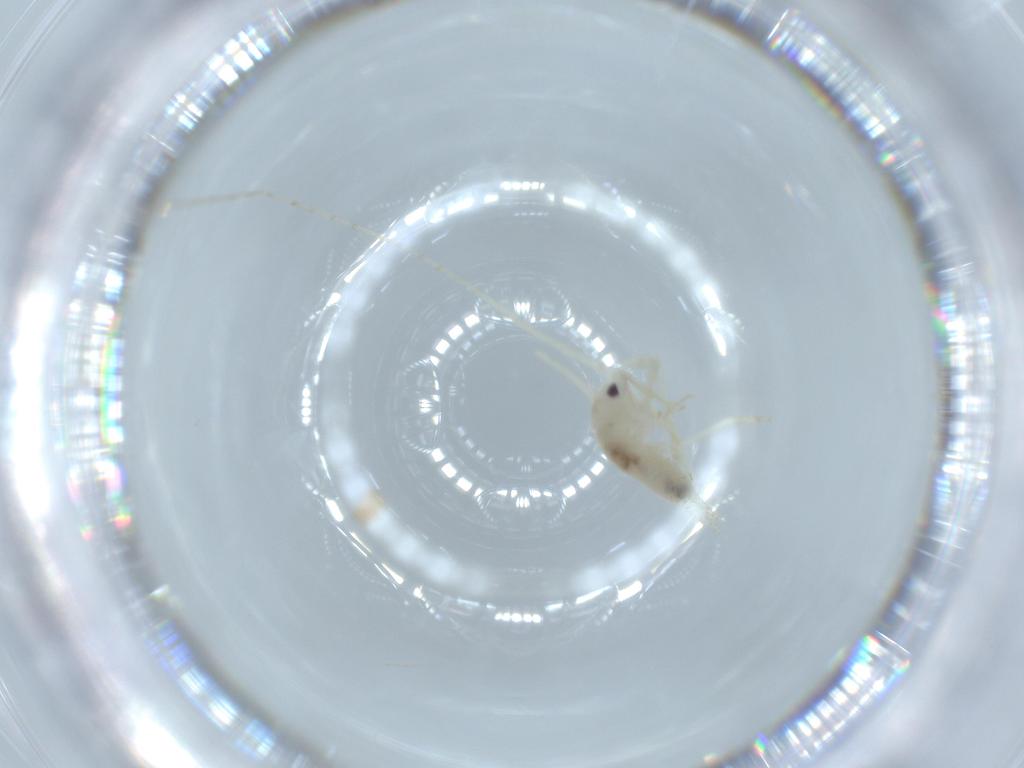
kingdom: Animalia
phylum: Arthropoda
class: Insecta
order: Orthoptera
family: Trigonidiidae
